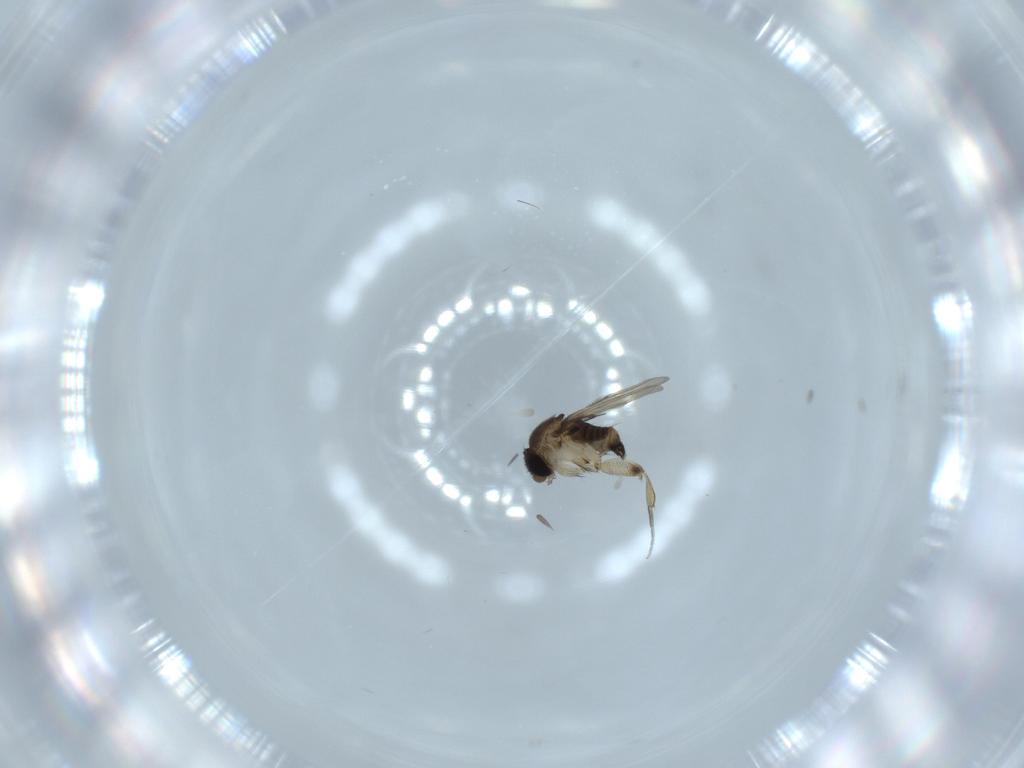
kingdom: Animalia
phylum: Arthropoda
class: Insecta
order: Diptera
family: Phoridae
